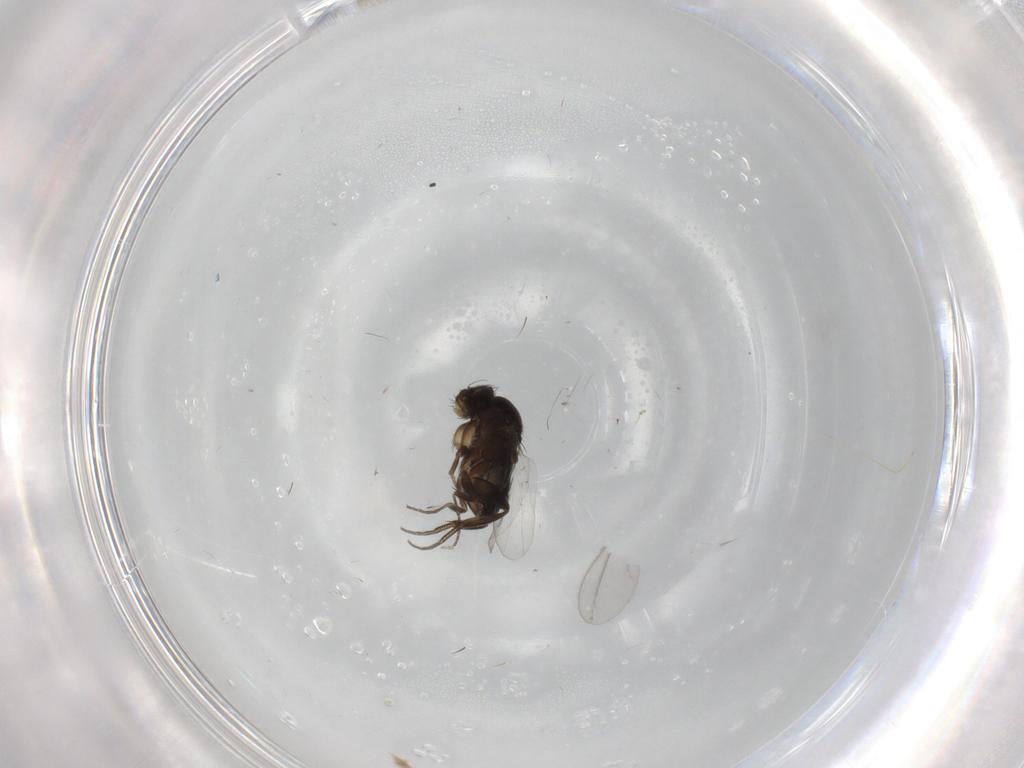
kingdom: Animalia
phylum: Arthropoda
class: Insecta
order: Diptera
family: Phoridae
